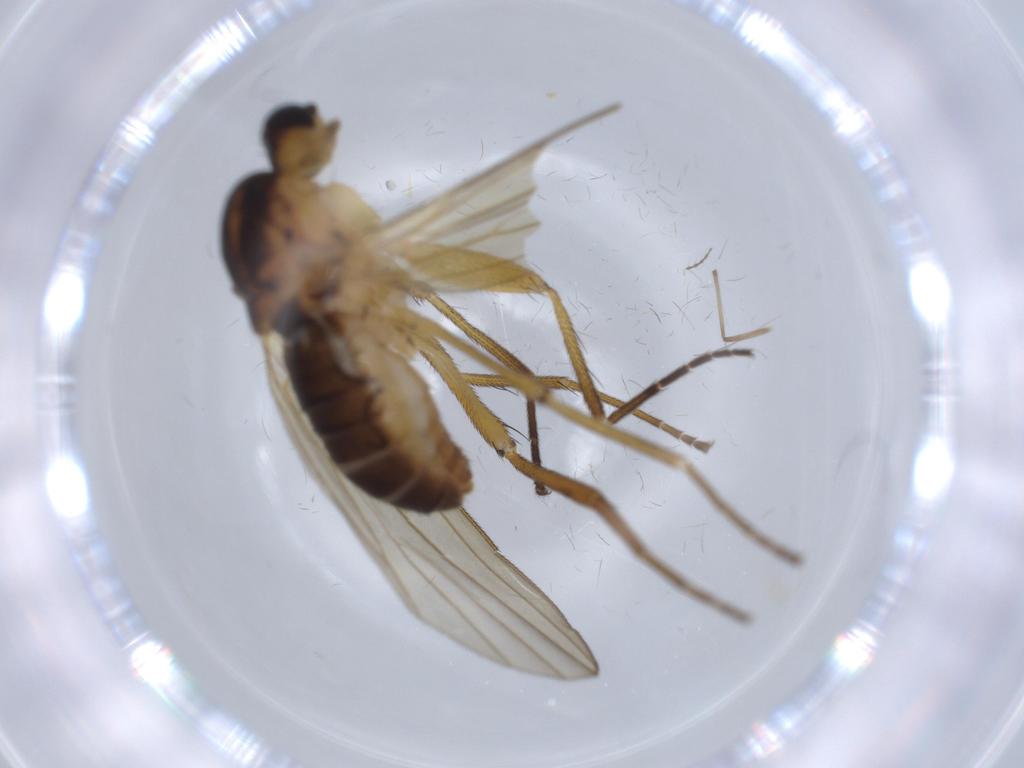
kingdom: Animalia
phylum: Arthropoda
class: Insecta
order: Diptera
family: Lonchopteridae
